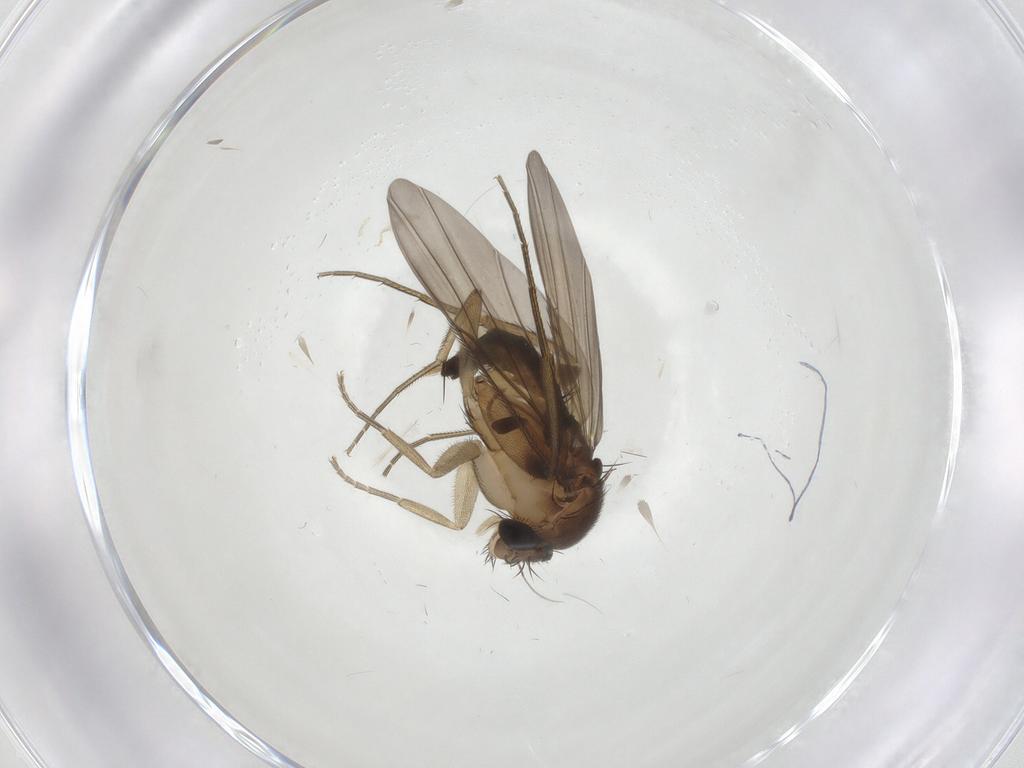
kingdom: Animalia
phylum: Arthropoda
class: Insecta
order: Diptera
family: Phoridae
